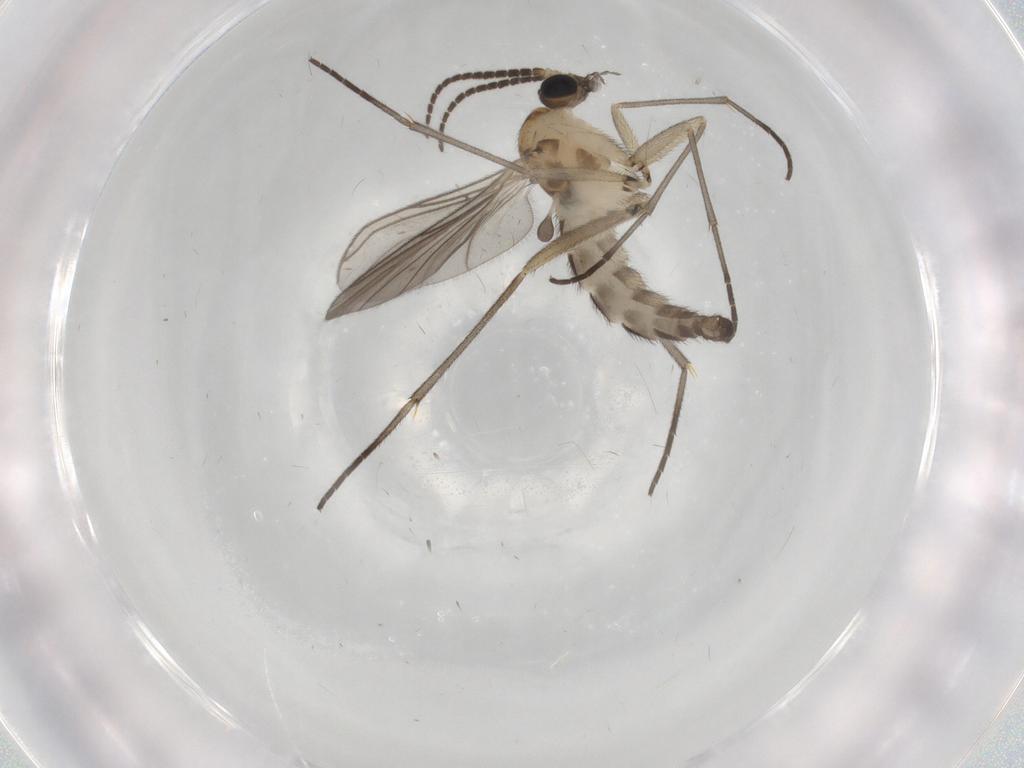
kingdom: Animalia
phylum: Arthropoda
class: Insecta
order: Diptera
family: Sciaridae
